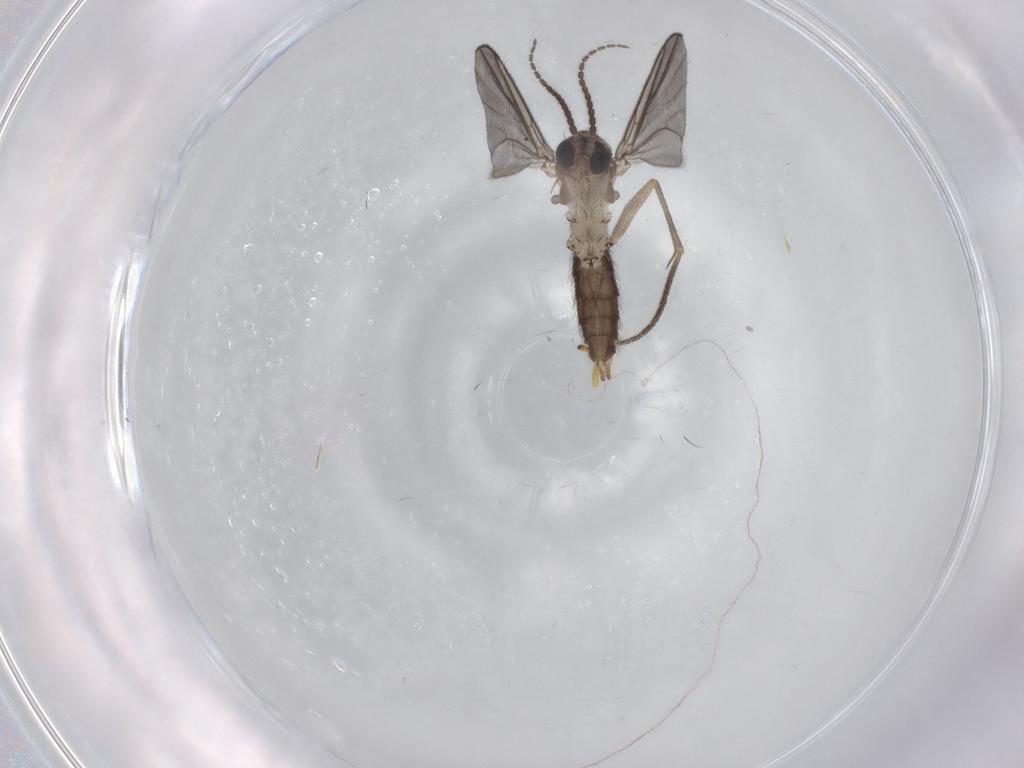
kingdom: Animalia
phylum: Arthropoda
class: Insecta
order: Diptera
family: Mycetophilidae
